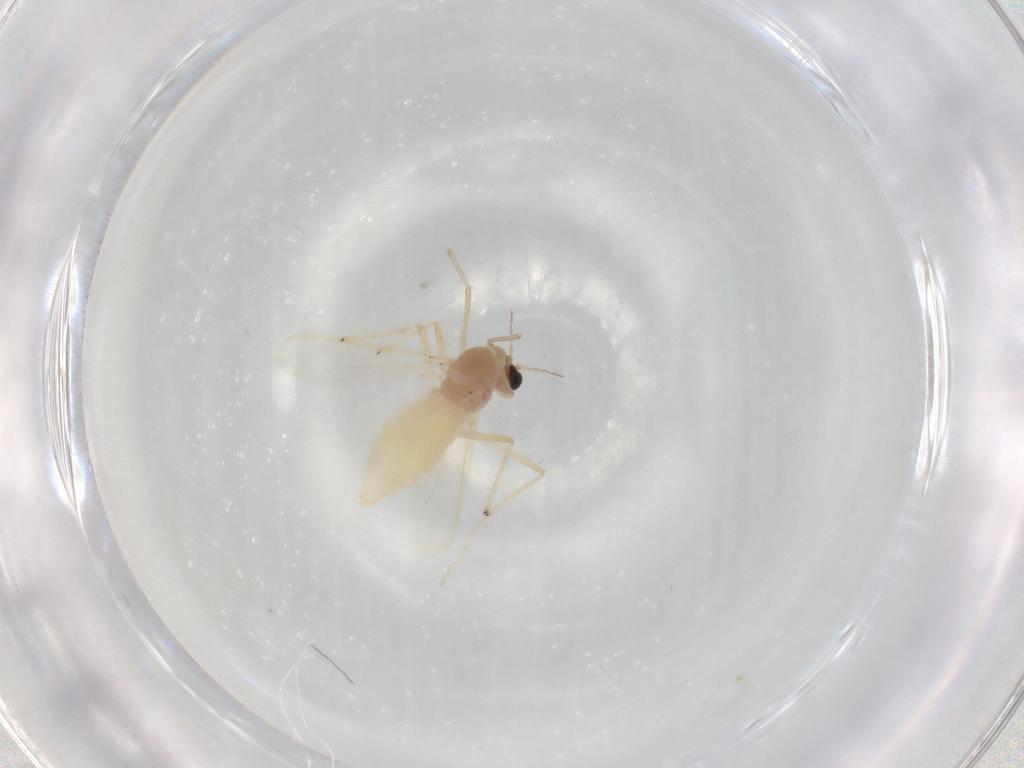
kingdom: Animalia
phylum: Arthropoda
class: Insecta
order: Diptera
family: Chironomidae
